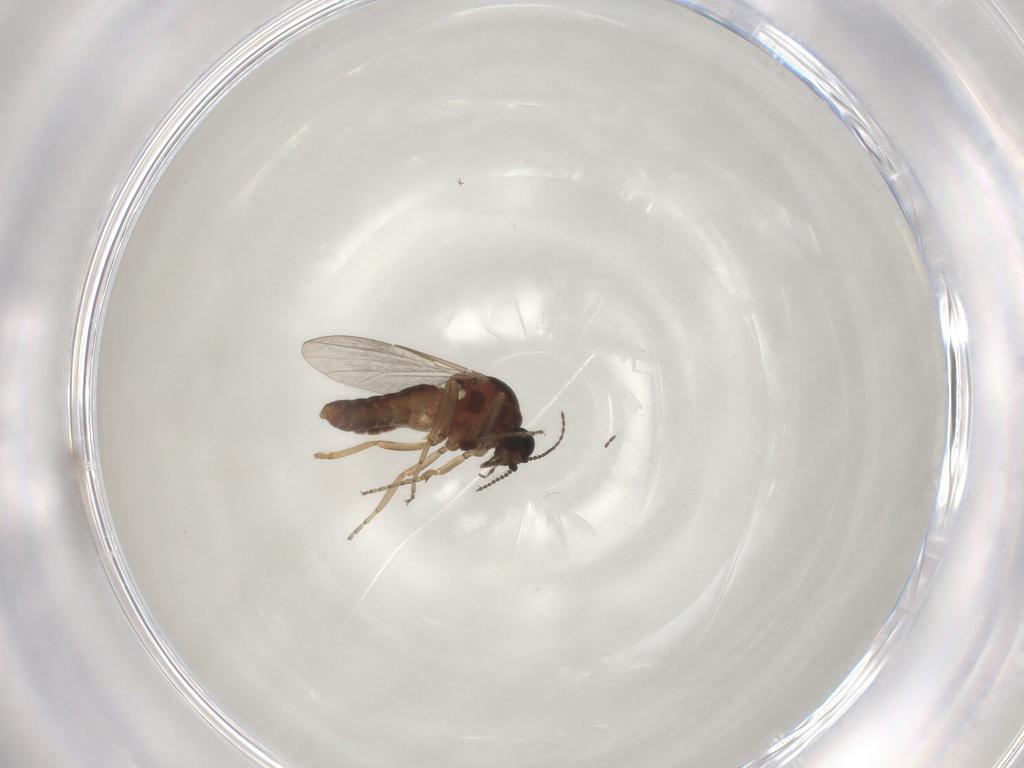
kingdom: Animalia
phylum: Arthropoda
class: Insecta
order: Diptera
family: Ceratopogonidae
